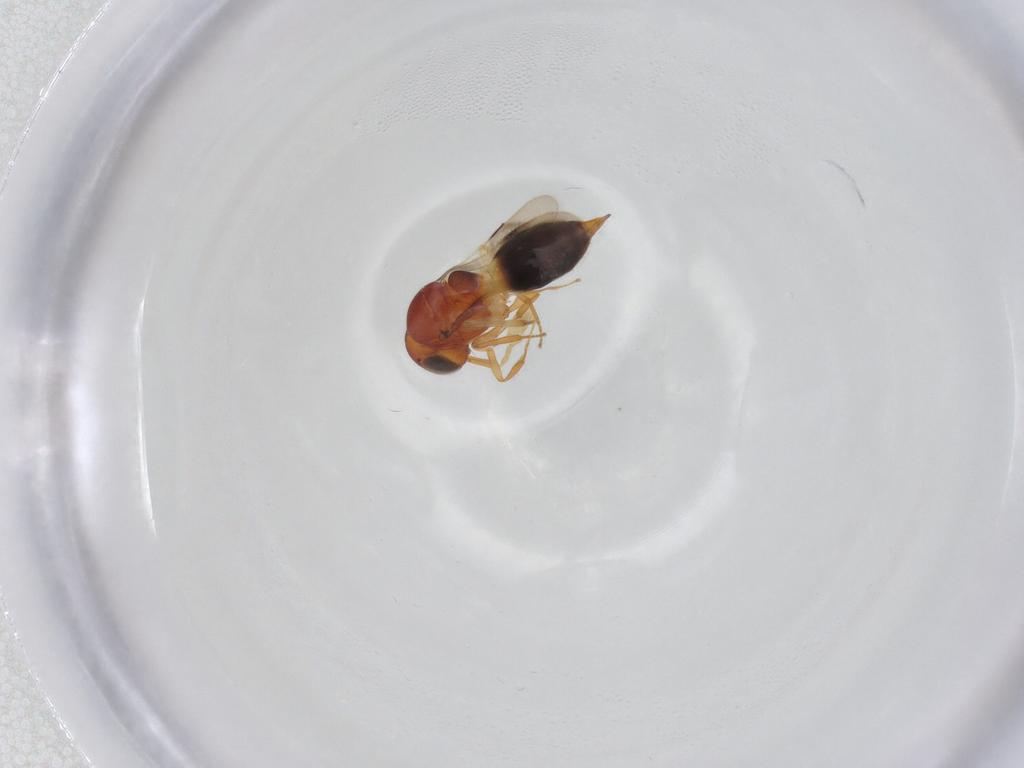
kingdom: Animalia
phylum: Arthropoda
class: Insecta
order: Hymenoptera
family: Scelionidae
